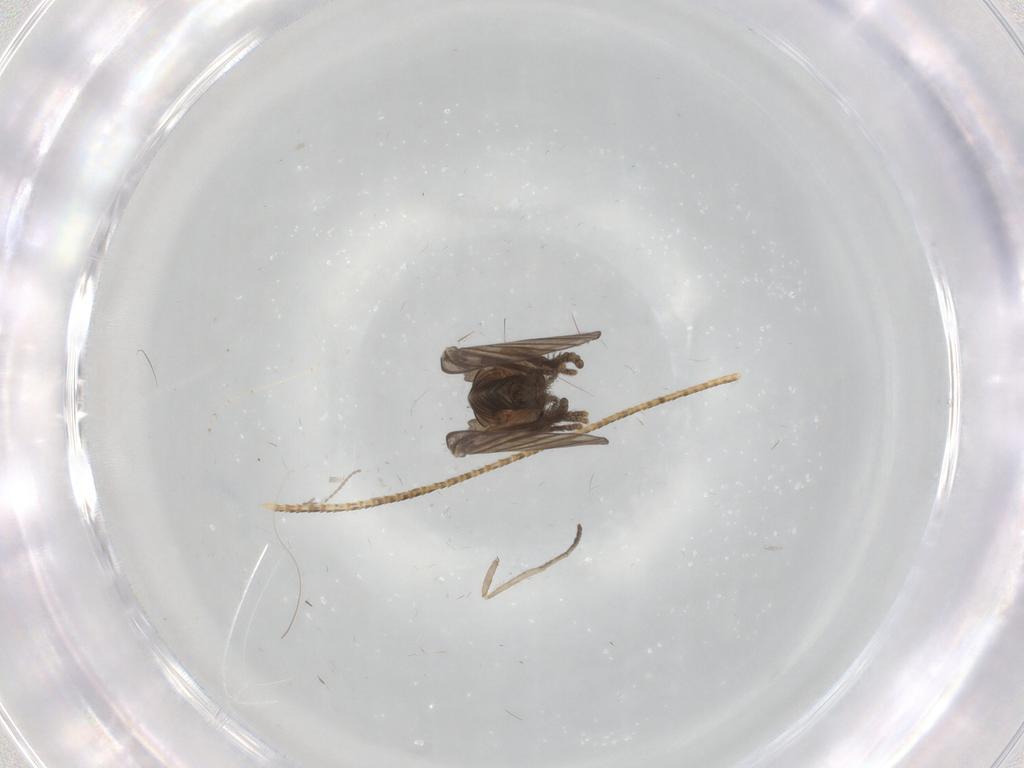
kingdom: Animalia
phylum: Arthropoda
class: Insecta
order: Diptera
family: Psychodidae
